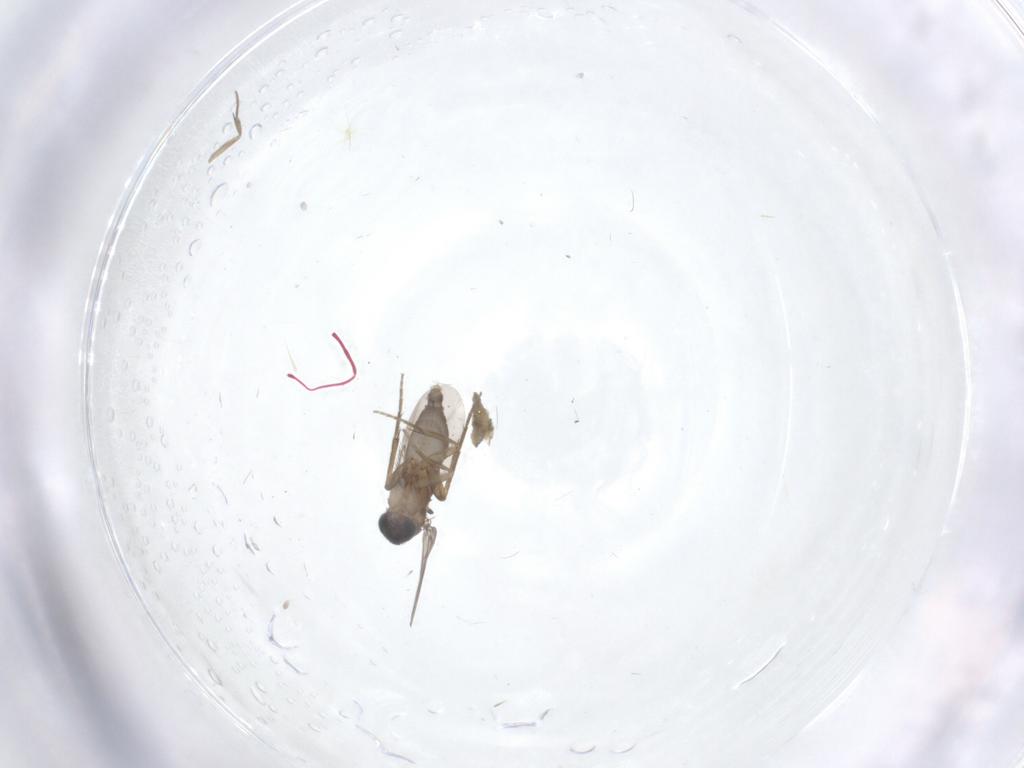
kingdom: Animalia
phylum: Arthropoda
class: Insecta
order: Diptera
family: Phoridae
